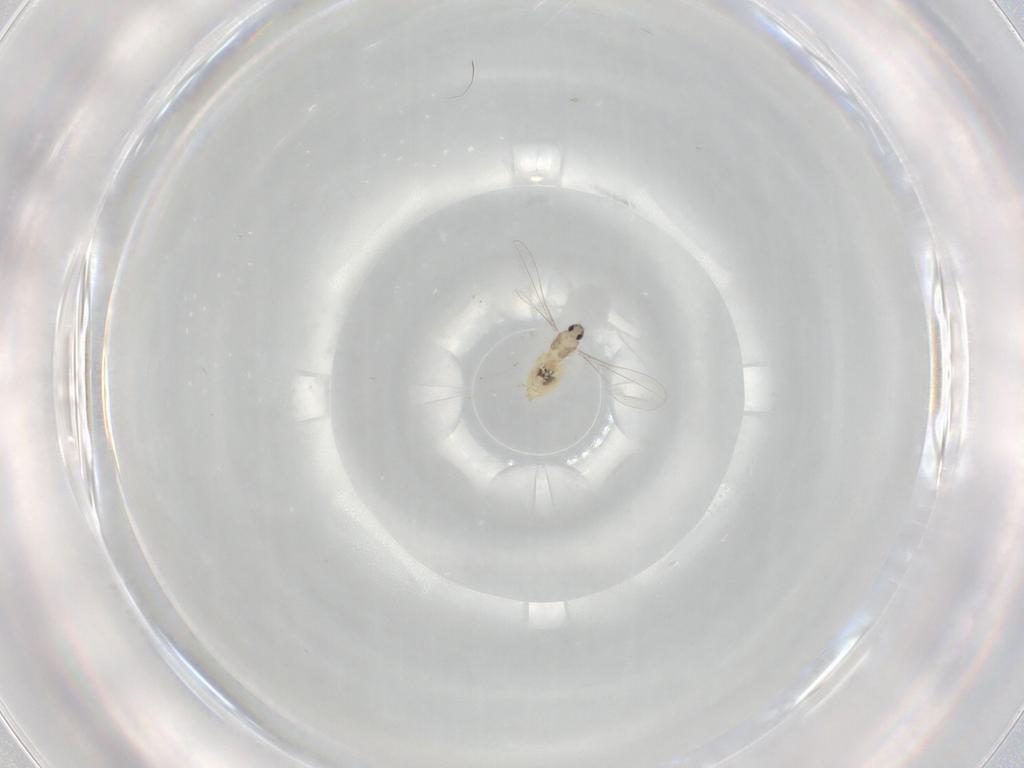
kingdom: Animalia
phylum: Arthropoda
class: Insecta
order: Diptera
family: Cecidomyiidae
